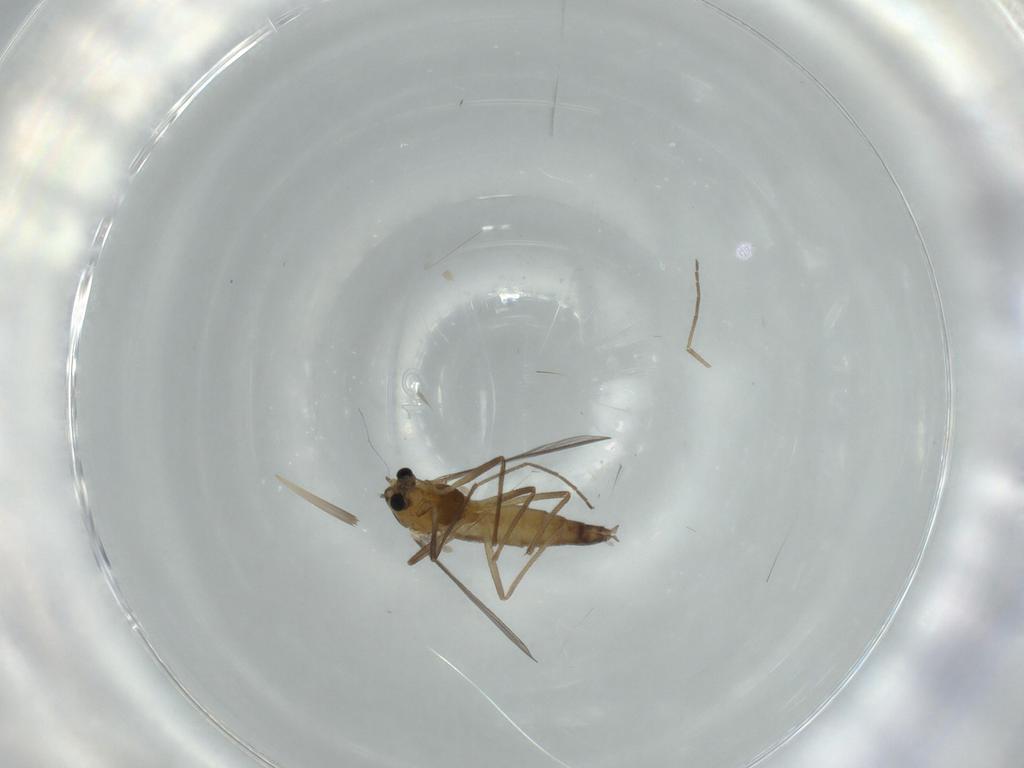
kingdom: Animalia
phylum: Arthropoda
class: Insecta
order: Diptera
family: Chironomidae
